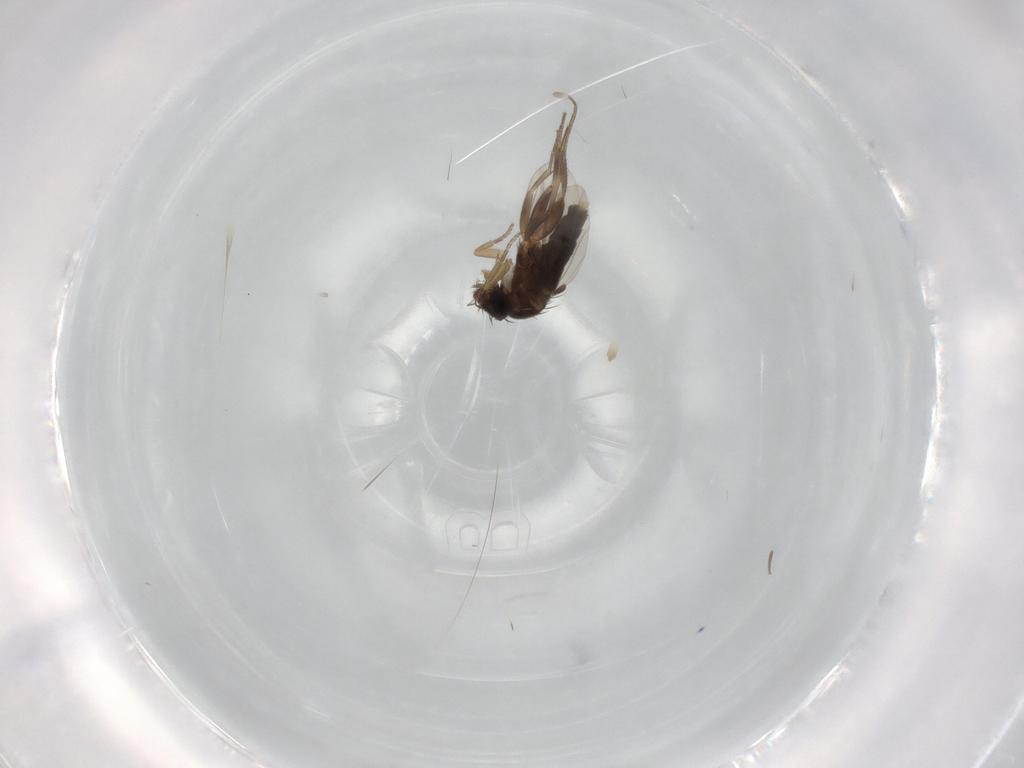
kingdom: Animalia
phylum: Arthropoda
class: Insecta
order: Diptera
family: Phoridae
